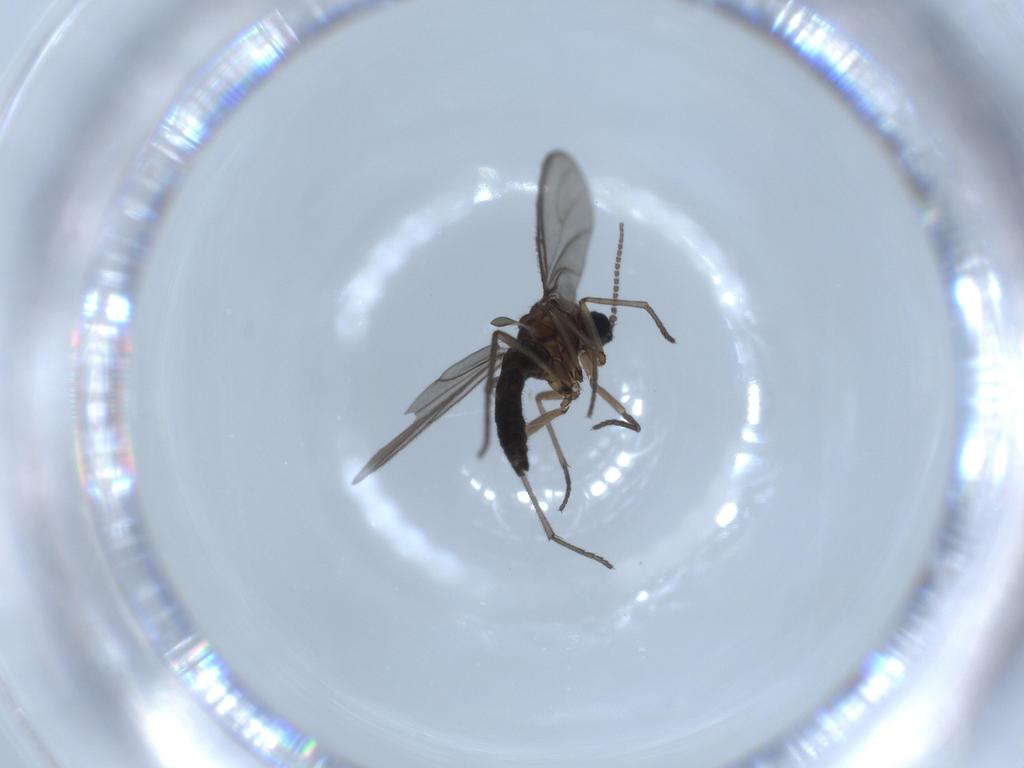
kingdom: Animalia
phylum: Arthropoda
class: Insecta
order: Diptera
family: Sciaridae
